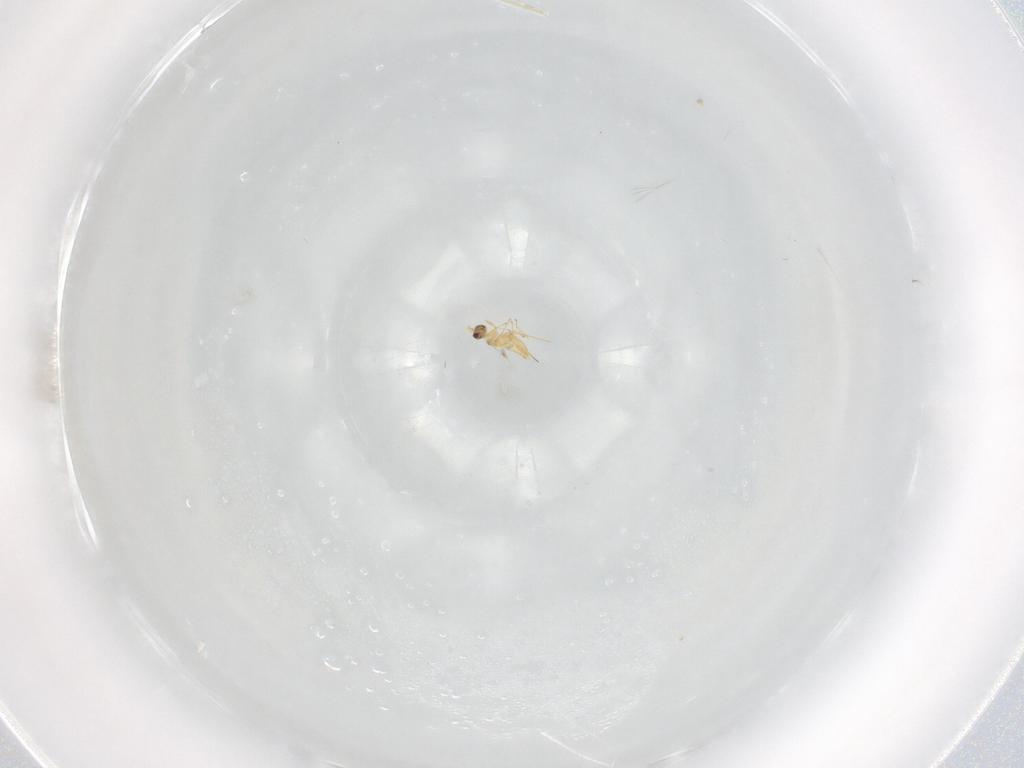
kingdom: Animalia
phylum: Arthropoda
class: Insecta
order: Hymenoptera
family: Mymaridae
